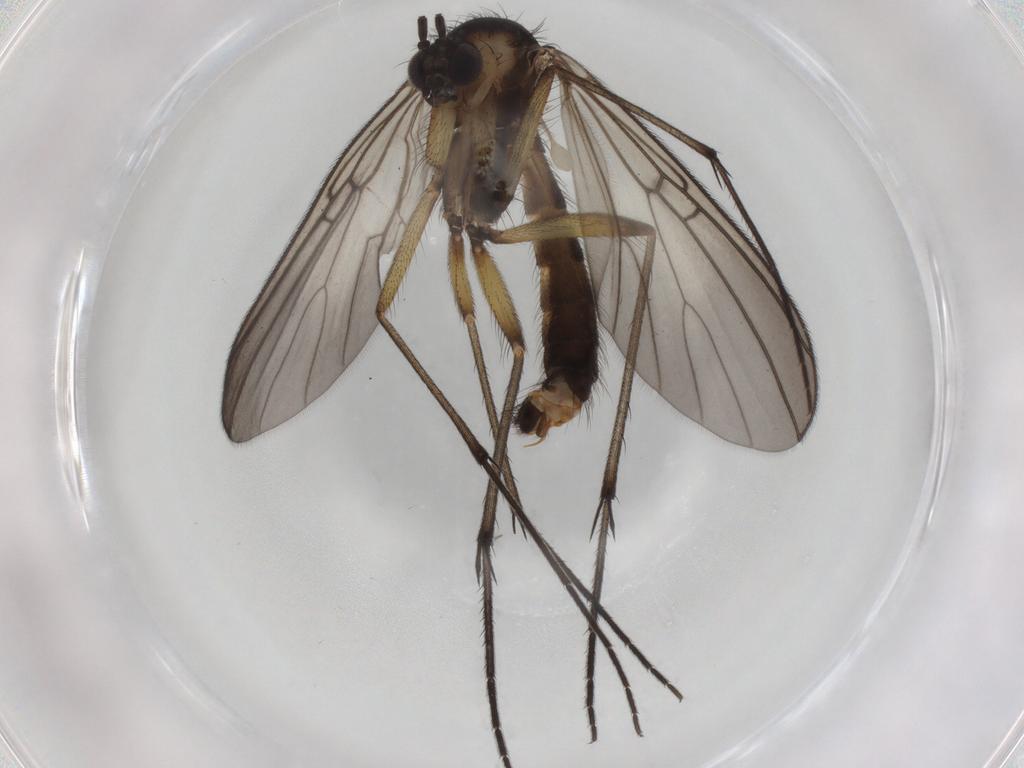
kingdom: Animalia
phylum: Arthropoda
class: Insecta
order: Diptera
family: Mycetophilidae
